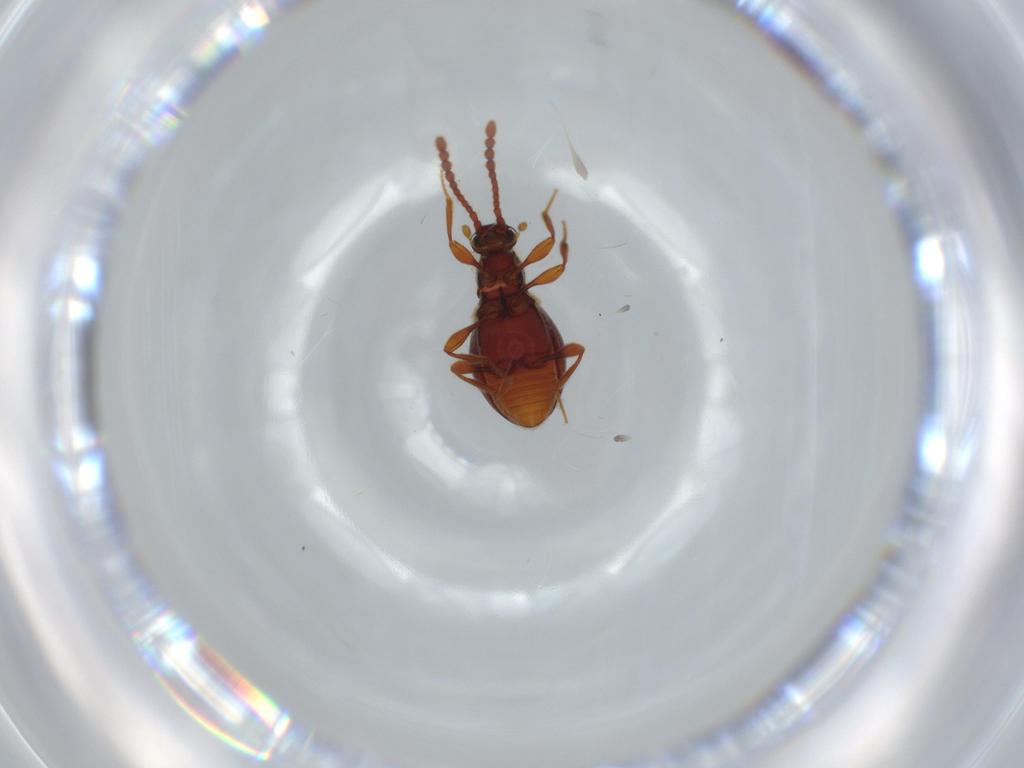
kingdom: Animalia
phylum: Arthropoda
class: Insecta
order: Coleoptera
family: Staphylinidae
